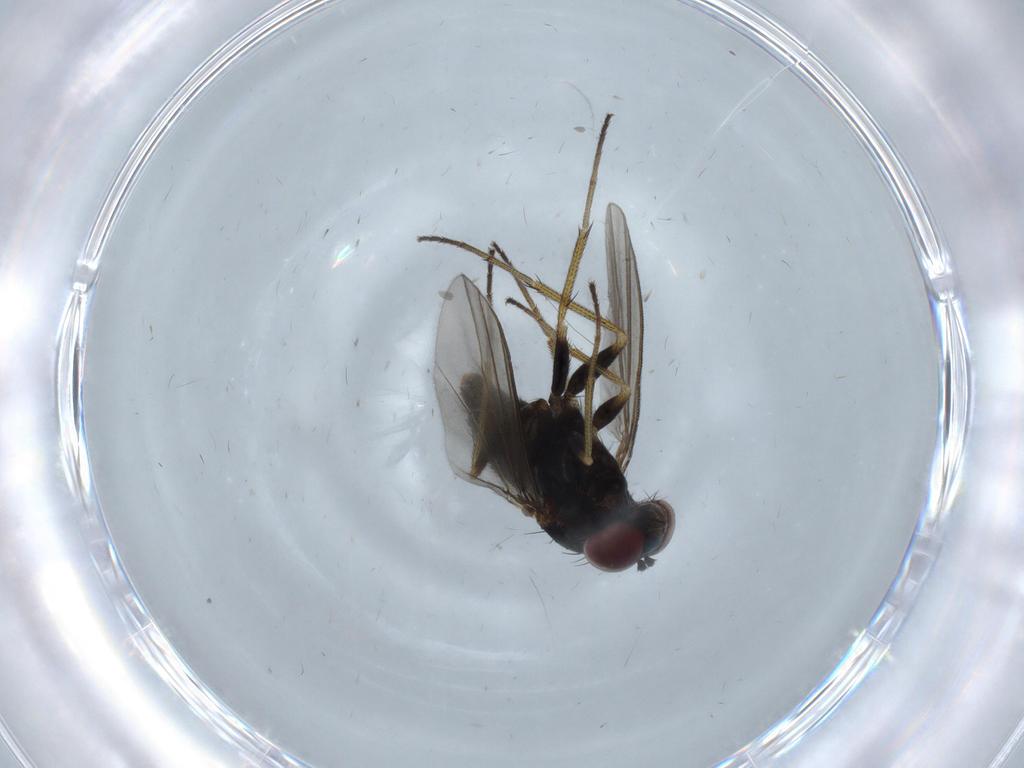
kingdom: Animalia
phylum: Arthropoda
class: Insecta
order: Diptera
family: Dolichopodidae
